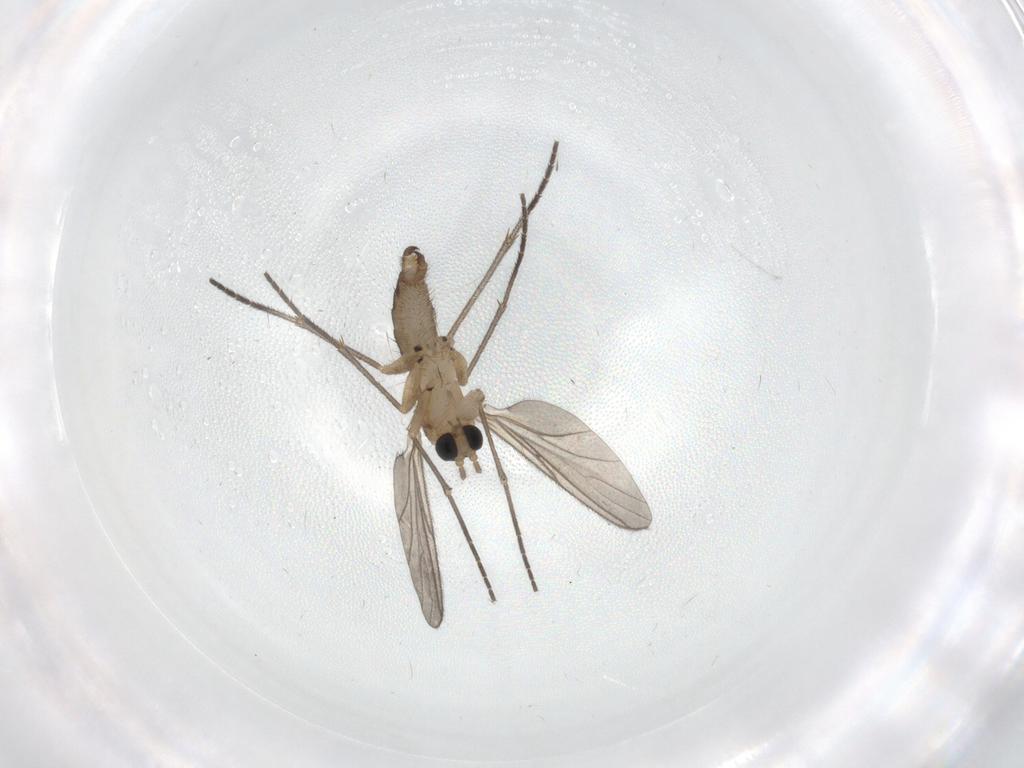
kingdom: Animalia
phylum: Arthropoda
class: Insecta
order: Diptera
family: Sciaridae
